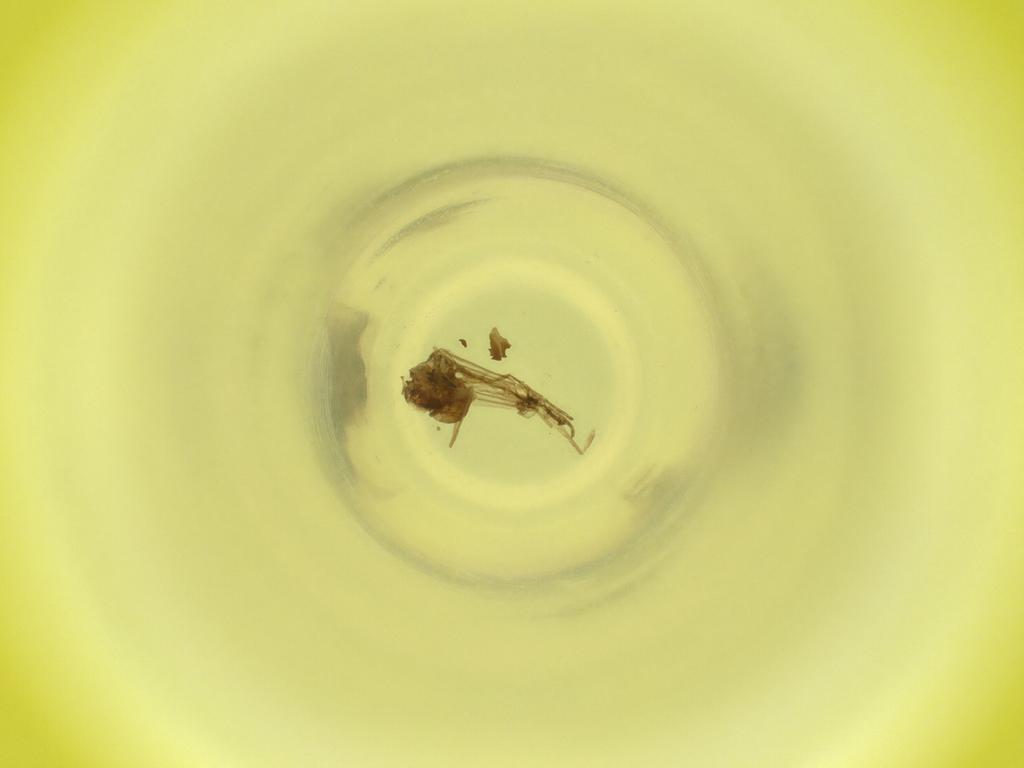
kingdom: Animalia
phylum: Arthropoda
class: Insecta
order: Diptera
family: Cecidomyiidae
